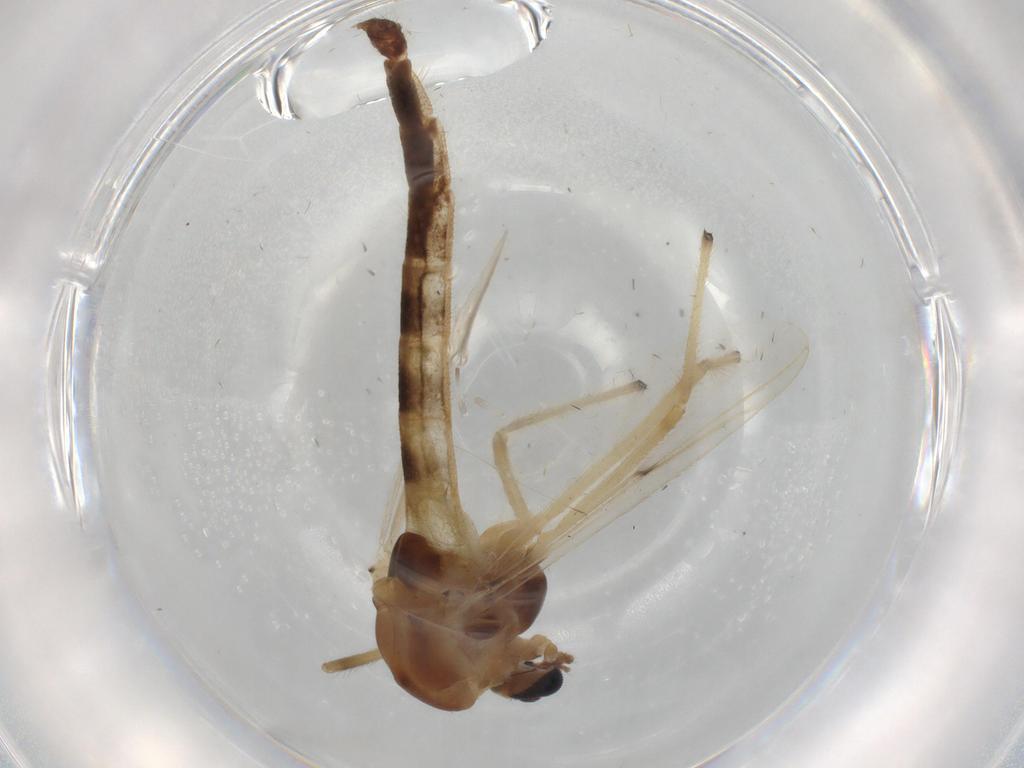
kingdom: Animalia
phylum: Arthropoda
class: Insecta
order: Diptera
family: Chironomidae
